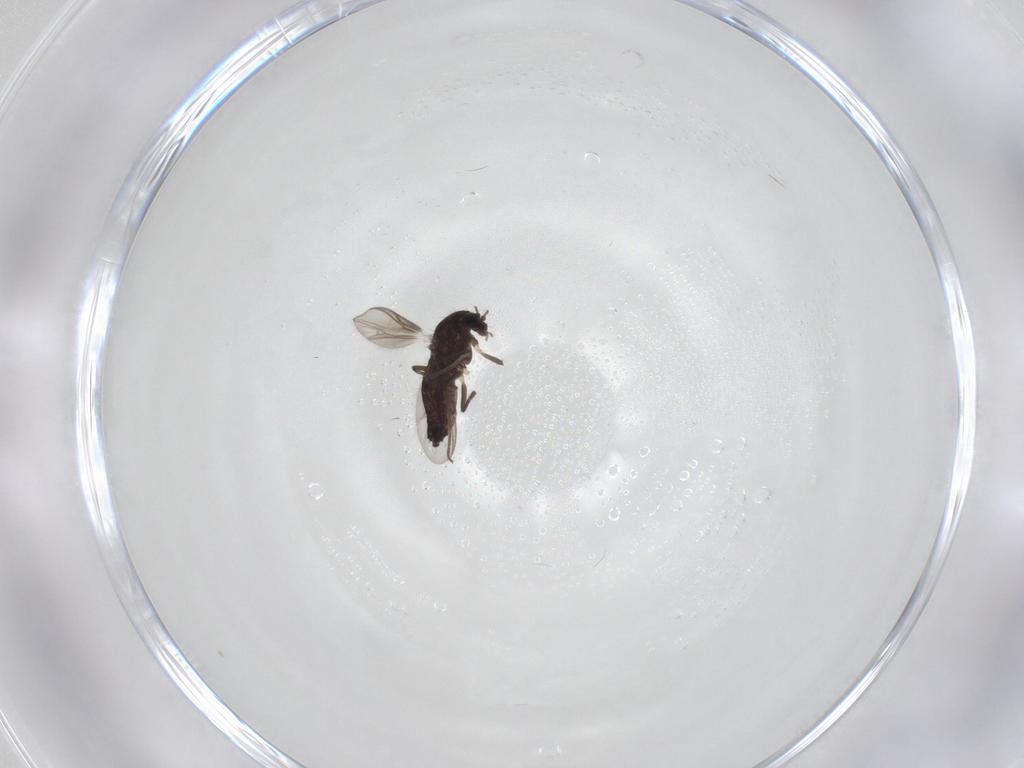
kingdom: Animalia
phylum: Arthropoda
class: Insecta
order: Diptera
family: Chironomidae
